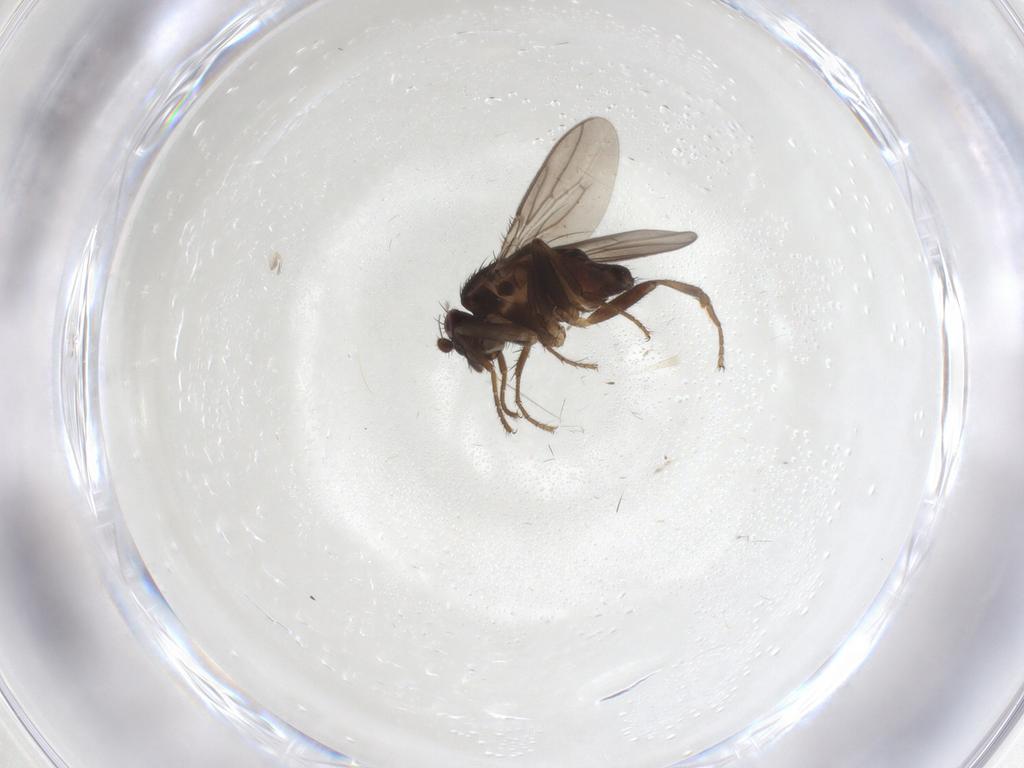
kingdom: Animalia
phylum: Arthropoda
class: Insecta
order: Diptera
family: Sphaeroceridae
